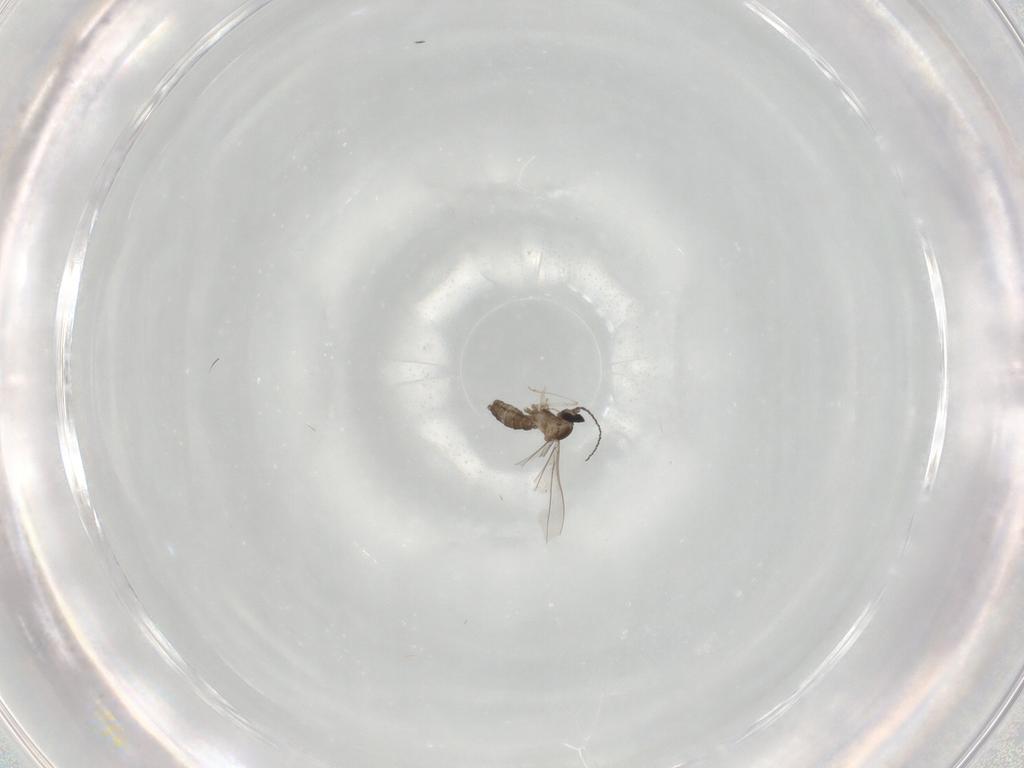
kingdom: Animalia
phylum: Arthropoda
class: Insecta
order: Diptera
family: Cecidomyiidae
